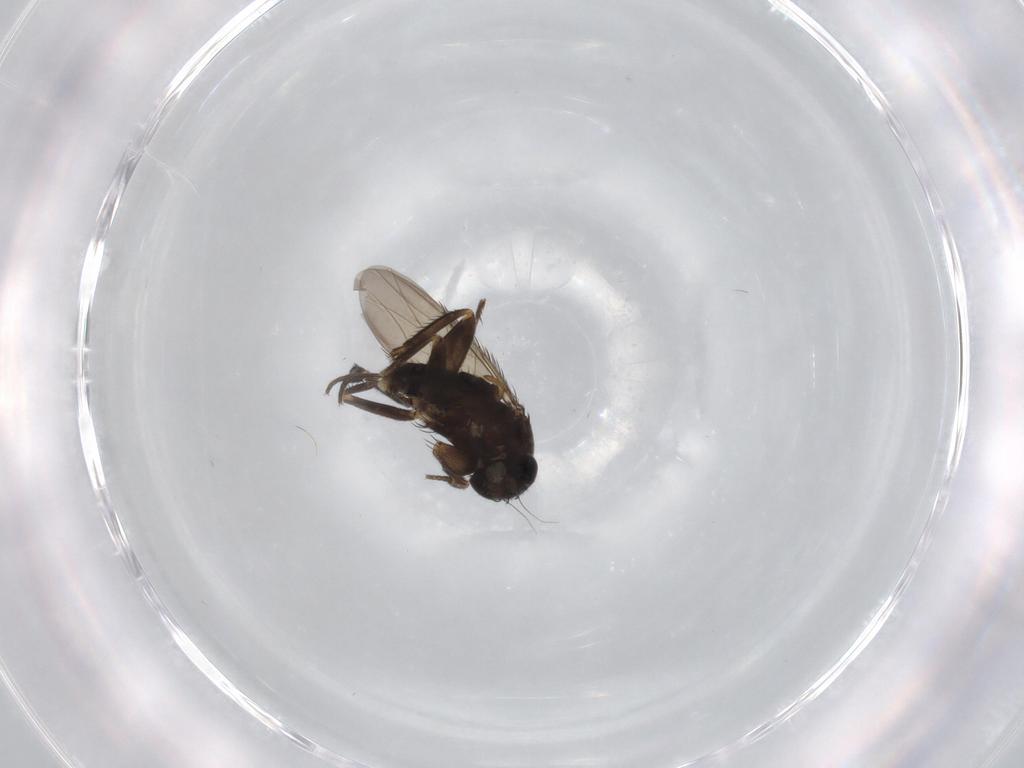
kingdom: Animalia
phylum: Arthropoda
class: Insecta
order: Diptera
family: Phoridae
